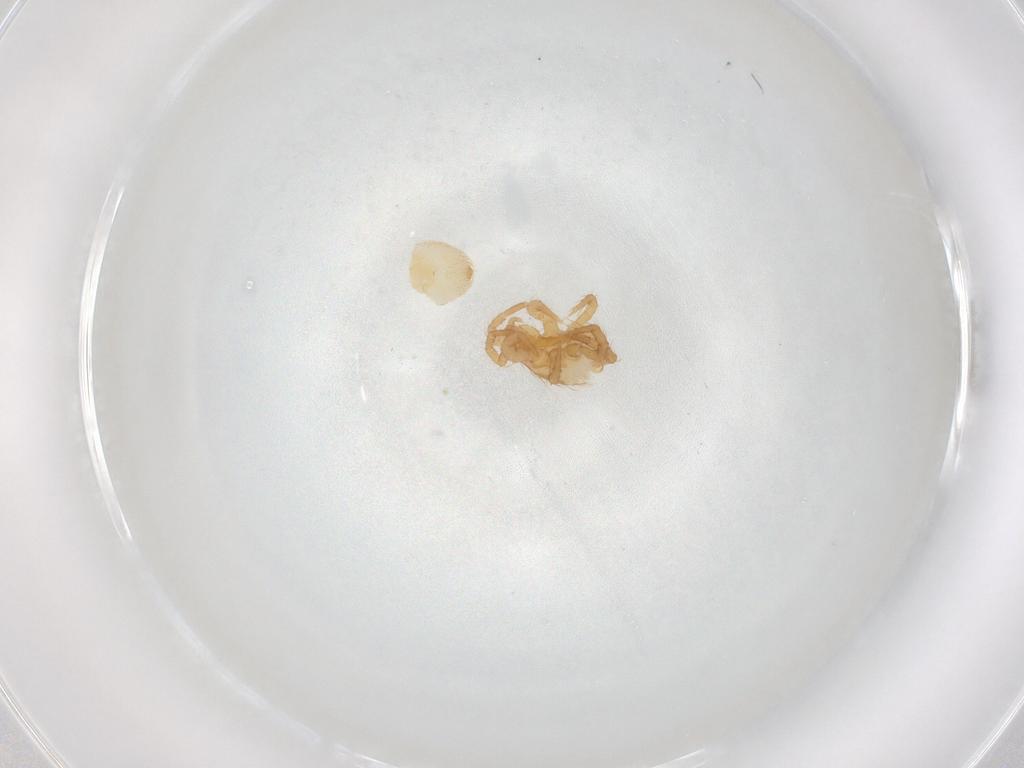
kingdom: Animalia
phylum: Arthropoda
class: Arachnida
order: Mesostigmata
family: Parasitidae
